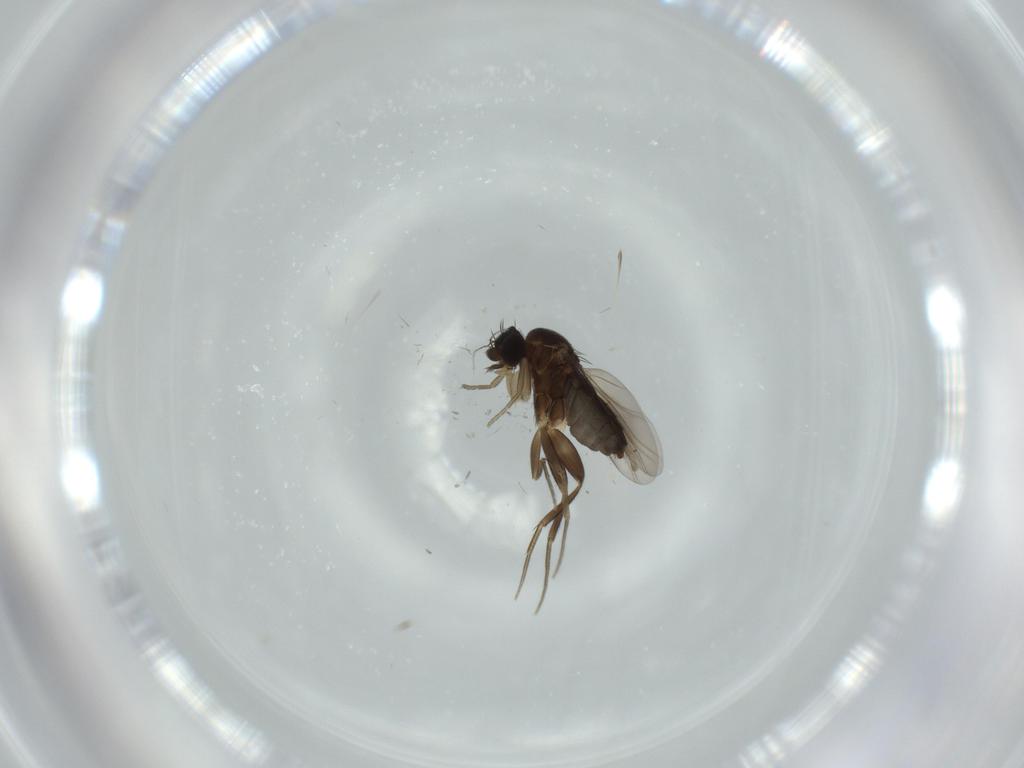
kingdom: Animalia
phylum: Arthropoda
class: Insecta
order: Diptera
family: Phoridae
